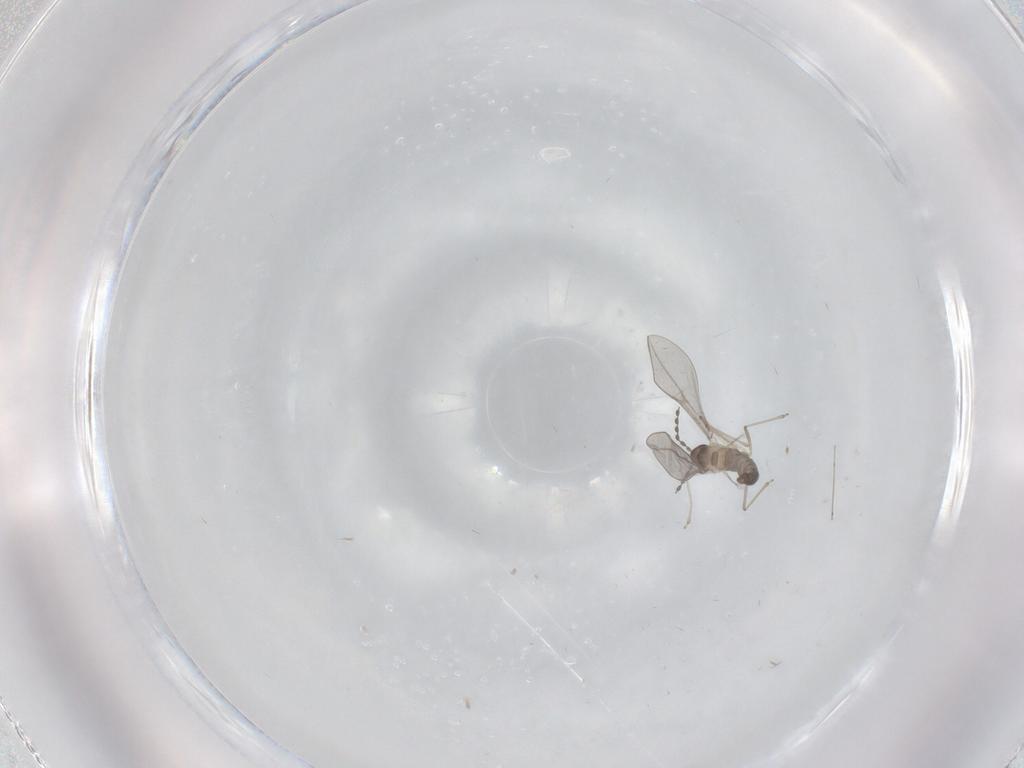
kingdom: Animalia
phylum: Arthropoda
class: Insecta
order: Diptera
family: Cecidomyiidae
